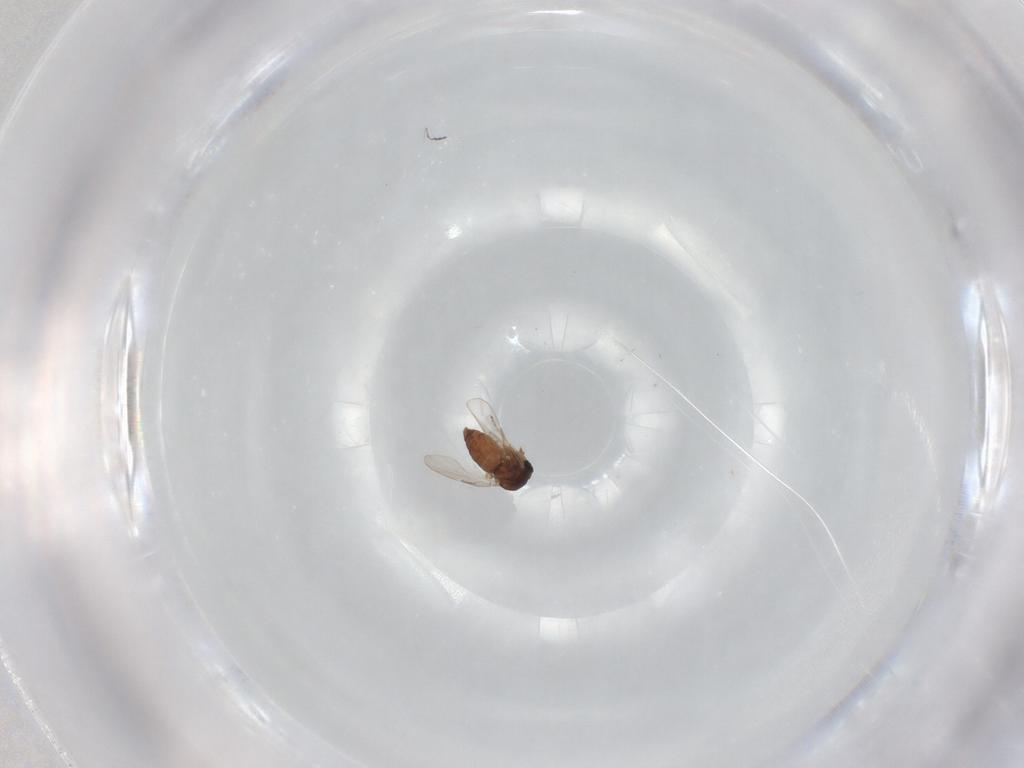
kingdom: Animalia
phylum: Arthropoda
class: Insecta
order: Diptera
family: Ceratopogonidae
